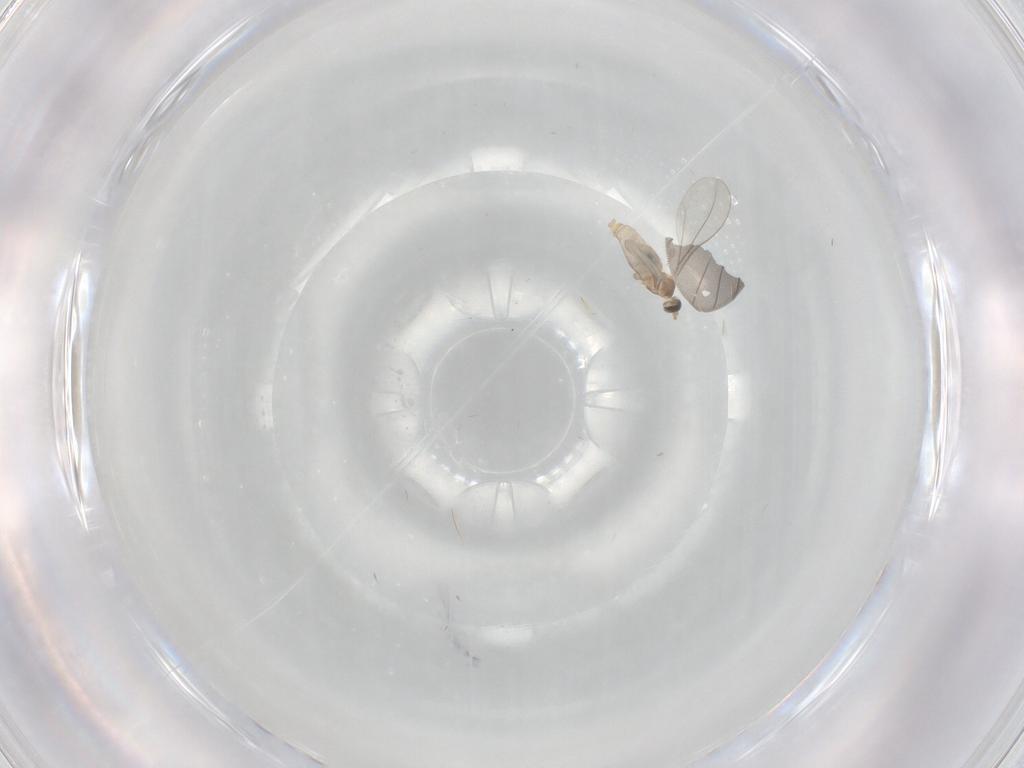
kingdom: Animalia
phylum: Arthropoda
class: Insecta
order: Diptera
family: Cecidomyiidae
